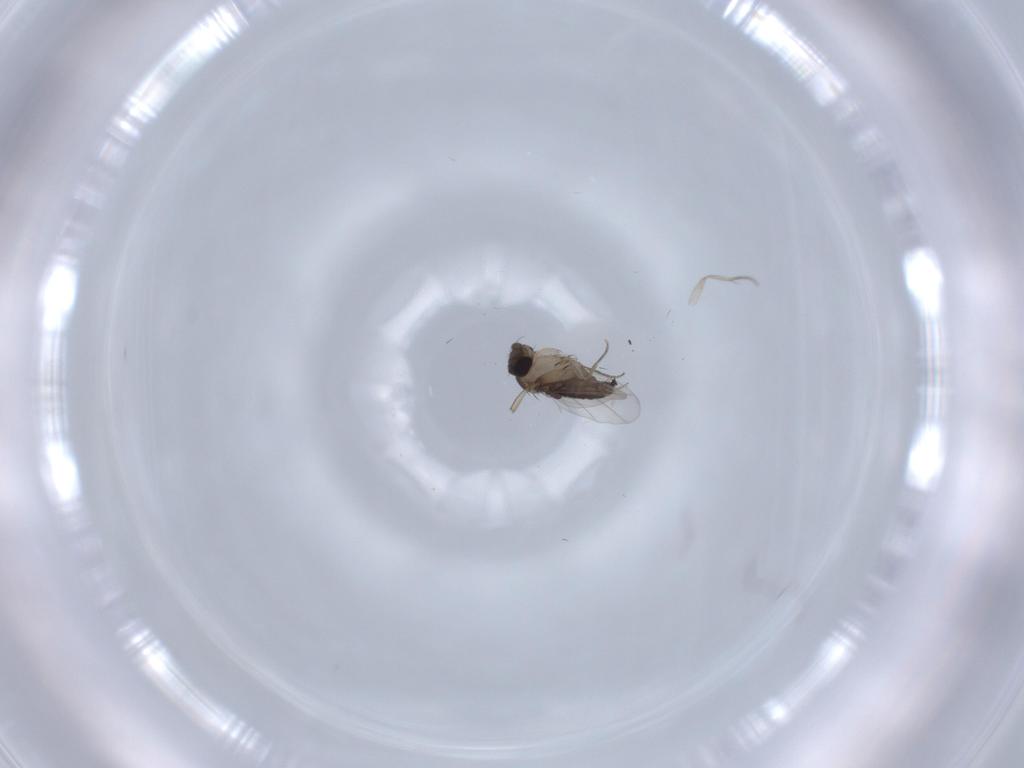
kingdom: Animalia
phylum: Arthropoda
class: Insecta
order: Diptera
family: Phoridae
